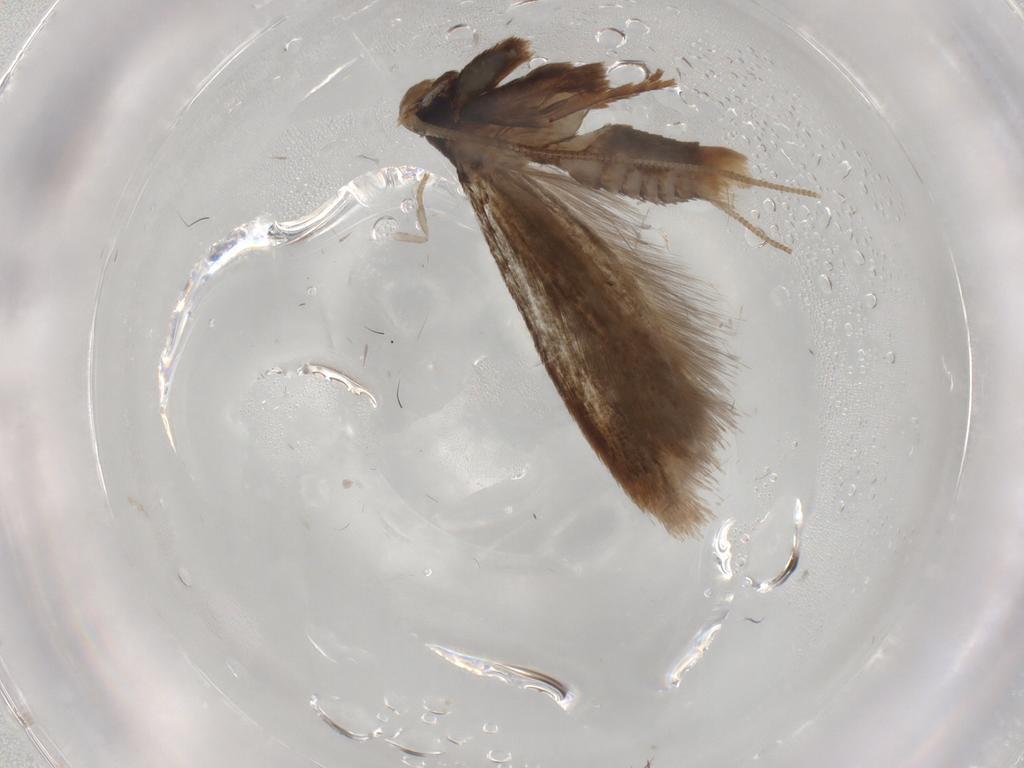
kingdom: Animalia
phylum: Arthropoda
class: Insecta
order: Lepidoptera
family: Coleophoridae
